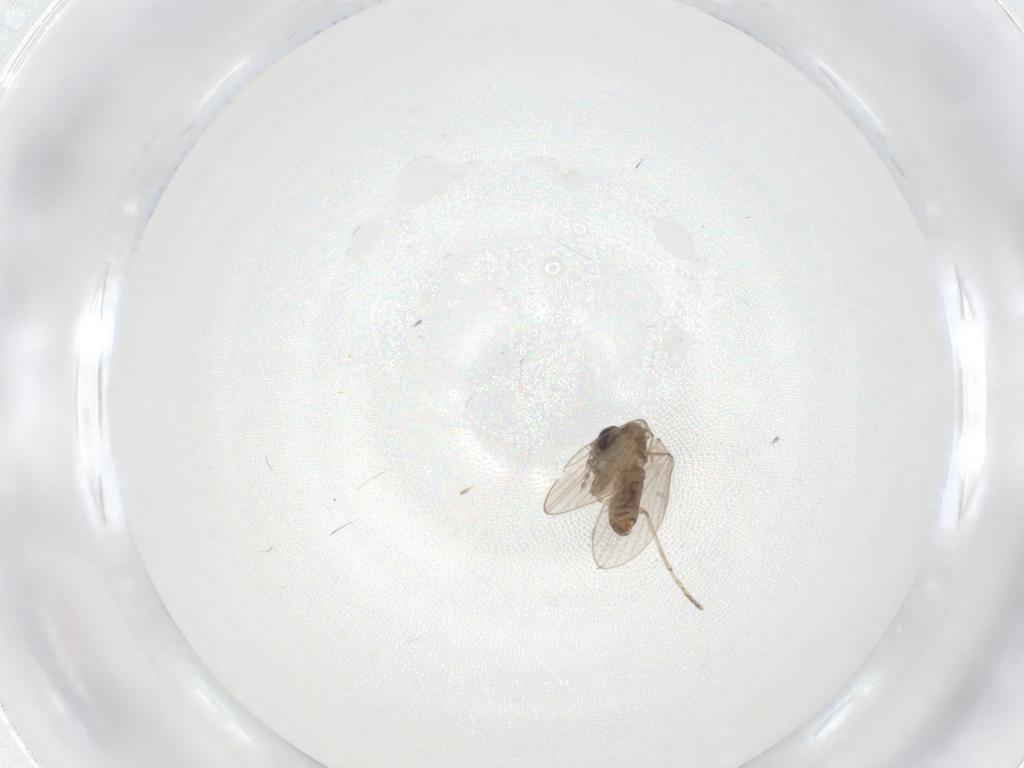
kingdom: Animalia
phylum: Arthropoda
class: Insecta
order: Diptera
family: Psychodidae
